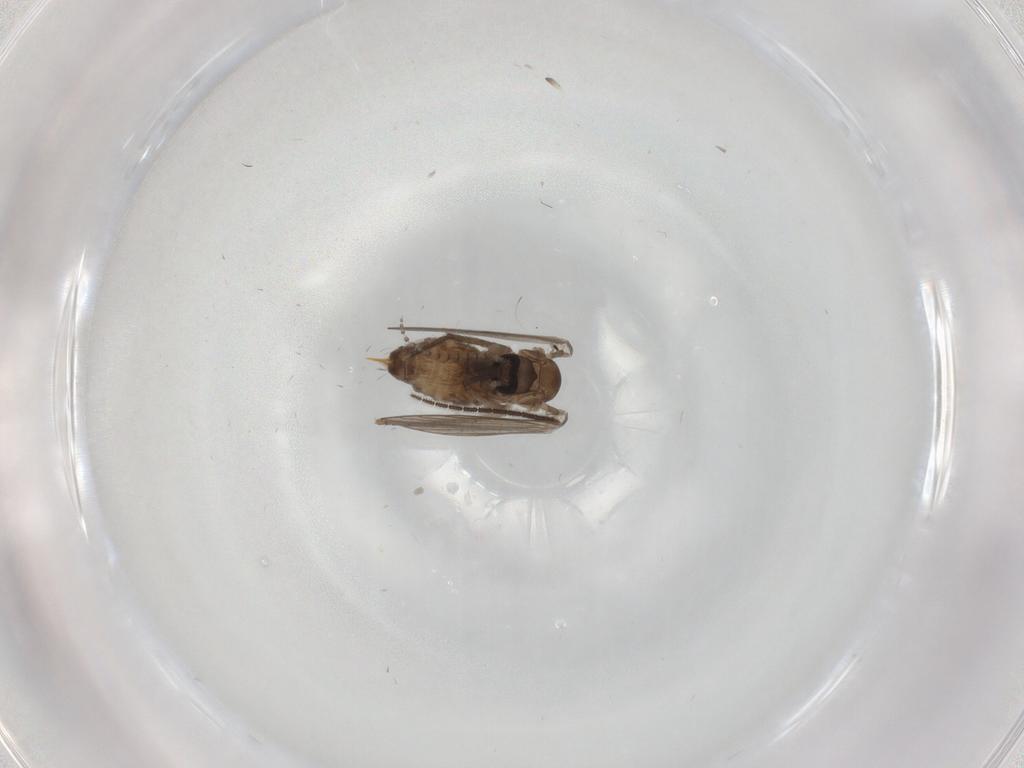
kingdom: Animalia
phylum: Arthropoda
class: Insecta
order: Diptera
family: Psychodidae
